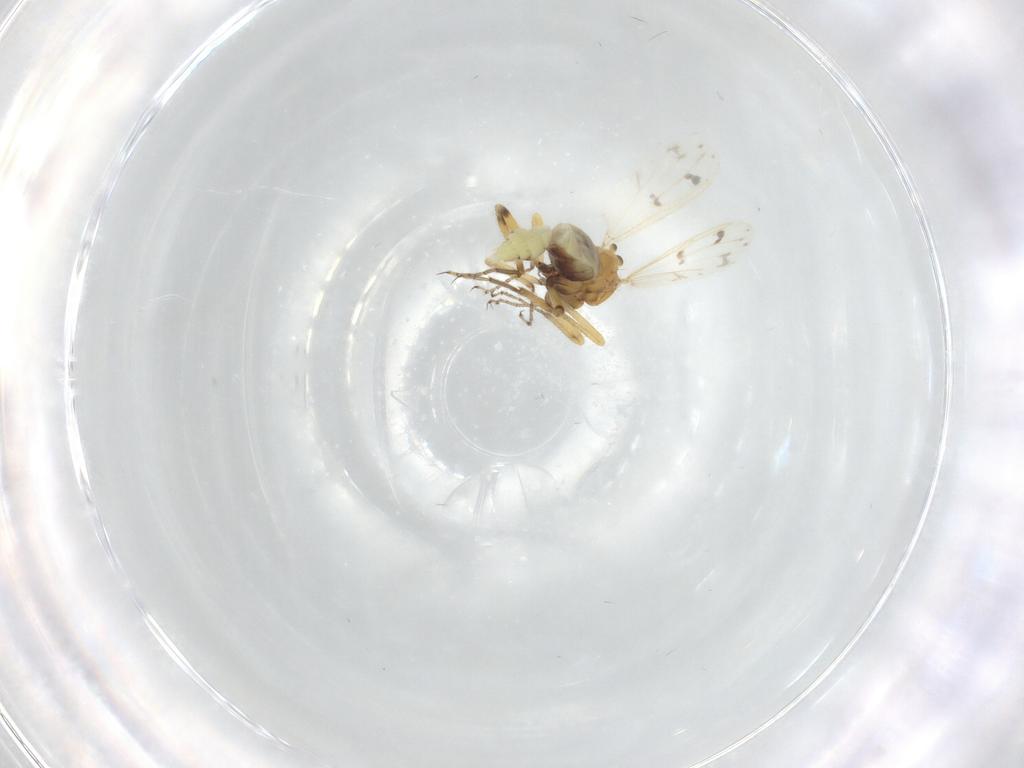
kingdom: Animalia
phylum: Arthropoda
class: Insecta
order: Diptera
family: Ceratopogonidae
